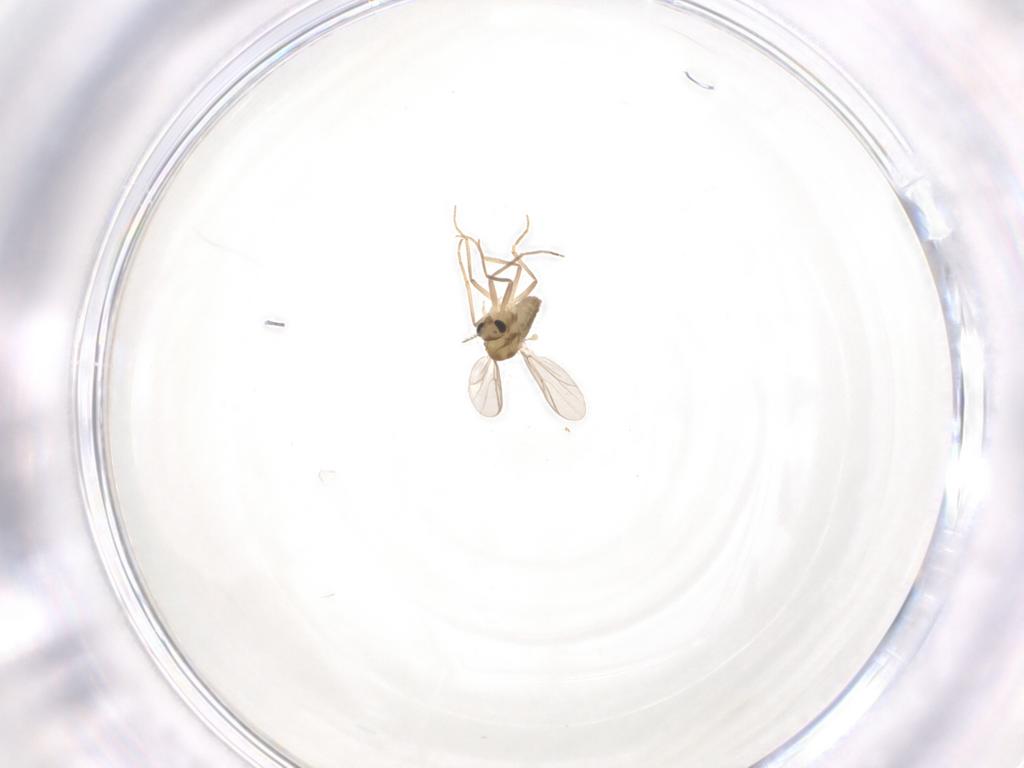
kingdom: Animalia
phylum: Arthropoda
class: Insecta
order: Diptera
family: Chironomidae
